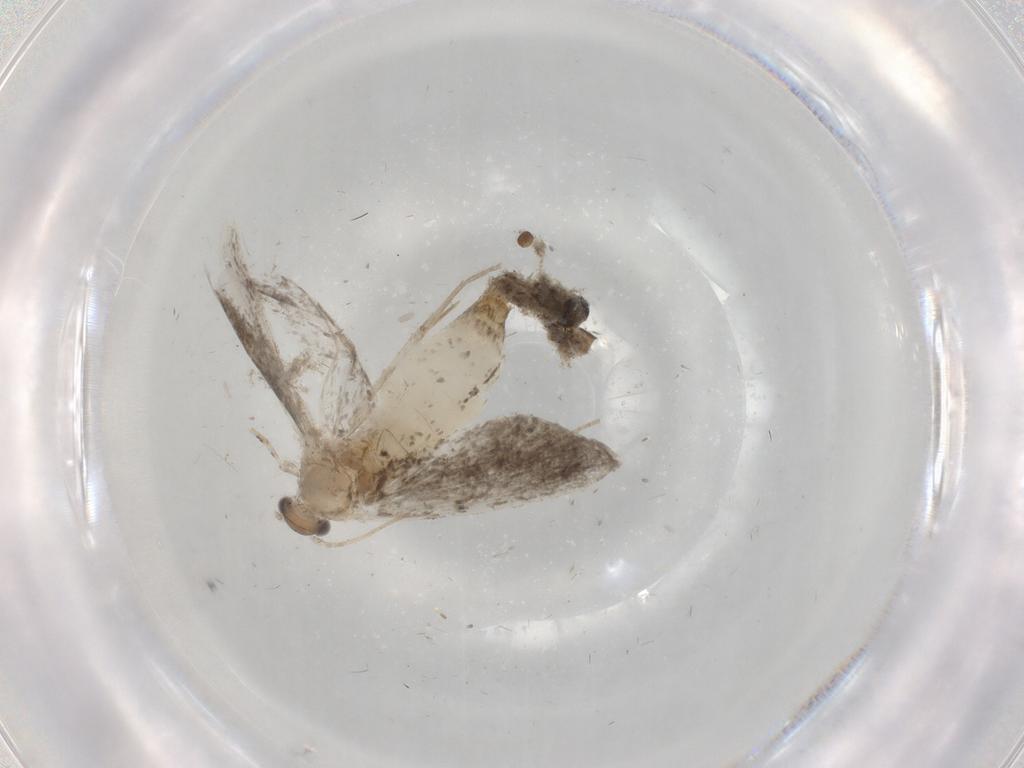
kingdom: Animalia
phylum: Arthropoda
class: Insecta
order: Lepidoptera
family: Tineidae
